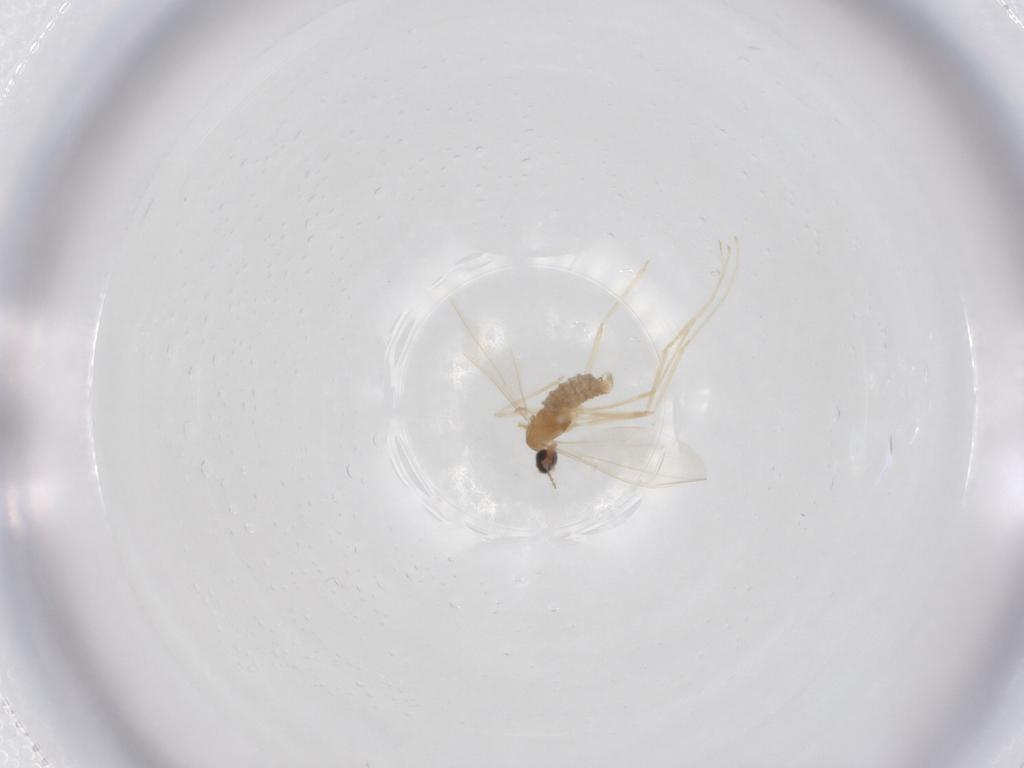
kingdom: Animalia
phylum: Arthropoda
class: Insecta
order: Diptera
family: Cecidomyiidae
